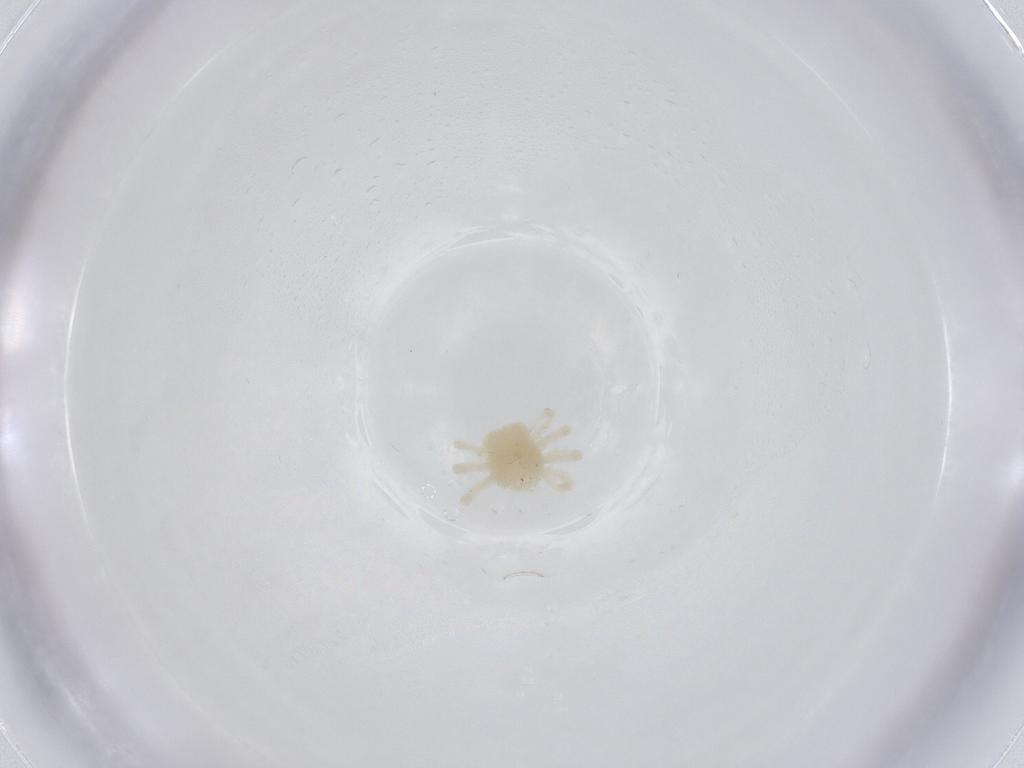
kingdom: Animalia
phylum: Arthropoda
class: Arachnida
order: Trombidiformes
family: Anystidae
